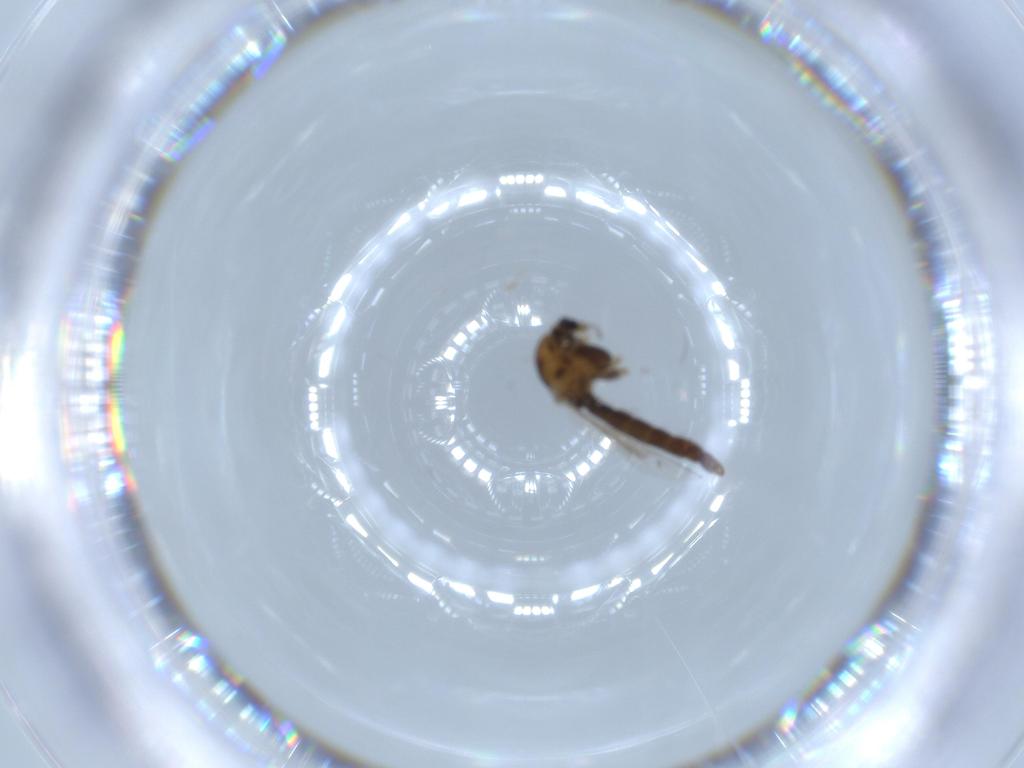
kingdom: Animalia
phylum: Arthropoda
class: Insecta
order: Diptera
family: Chironomidae
